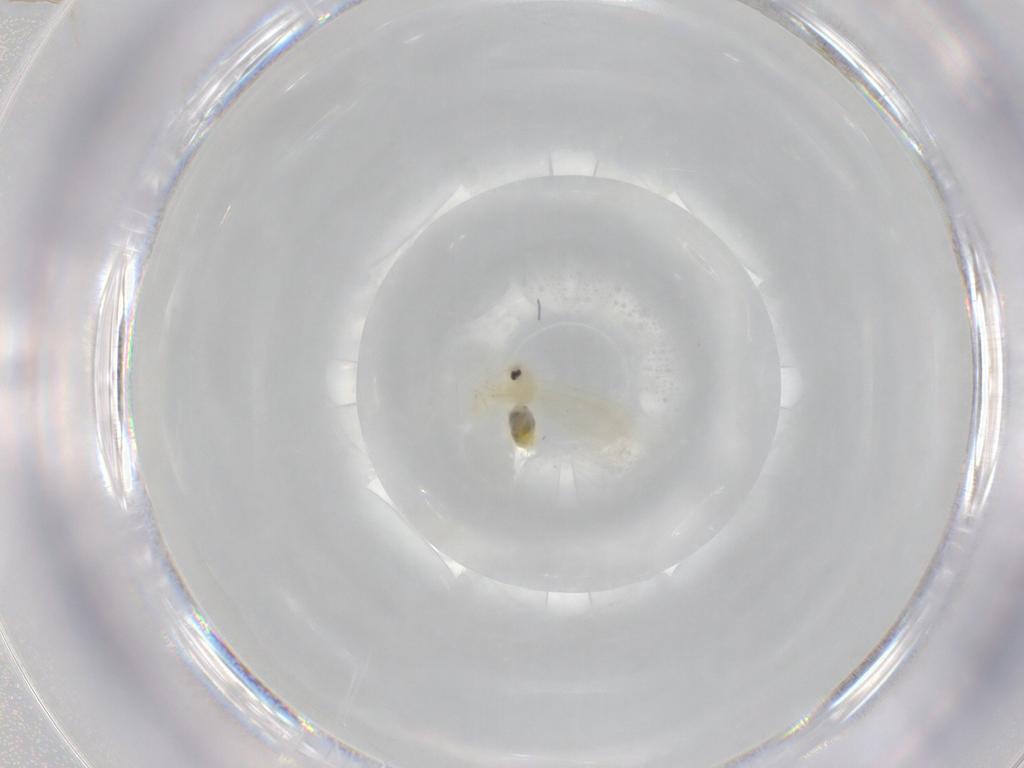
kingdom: Animalia
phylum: Arthropoda
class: Insecta
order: Hemiptera
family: Aleyrodidae
